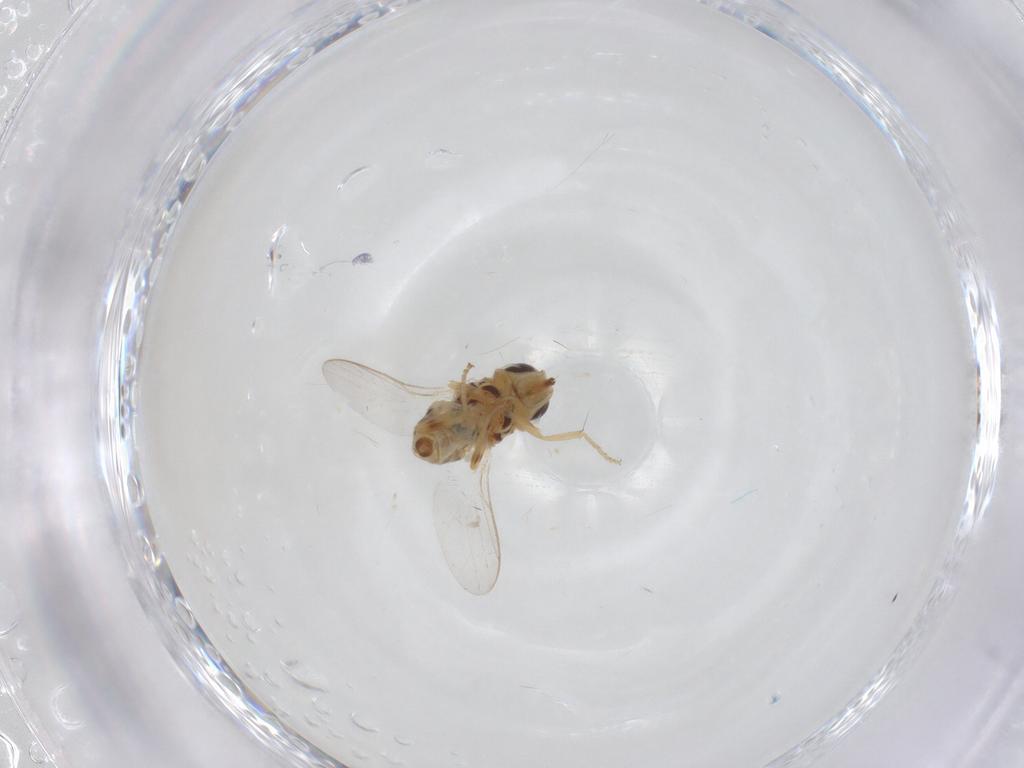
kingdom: Animalia
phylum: Arthropoda
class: Insecta
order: Diptera
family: Chloropidae
